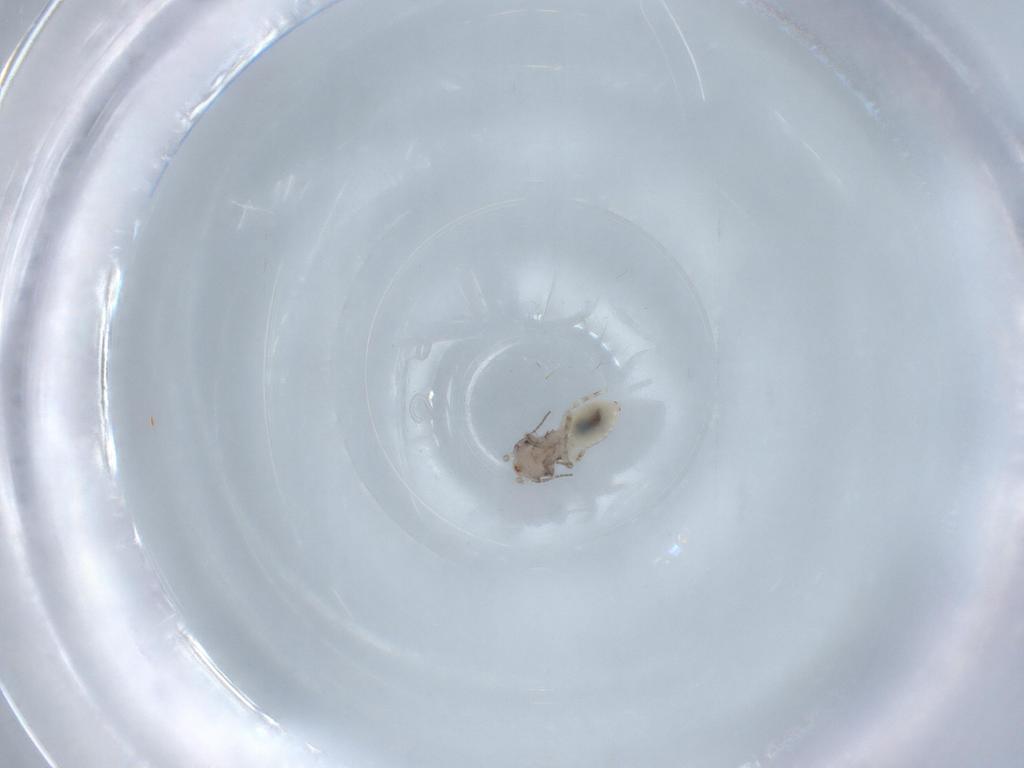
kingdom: Animalia
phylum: Arthropoda
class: Insecta
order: Psocodea
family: Lepidopsocidae
